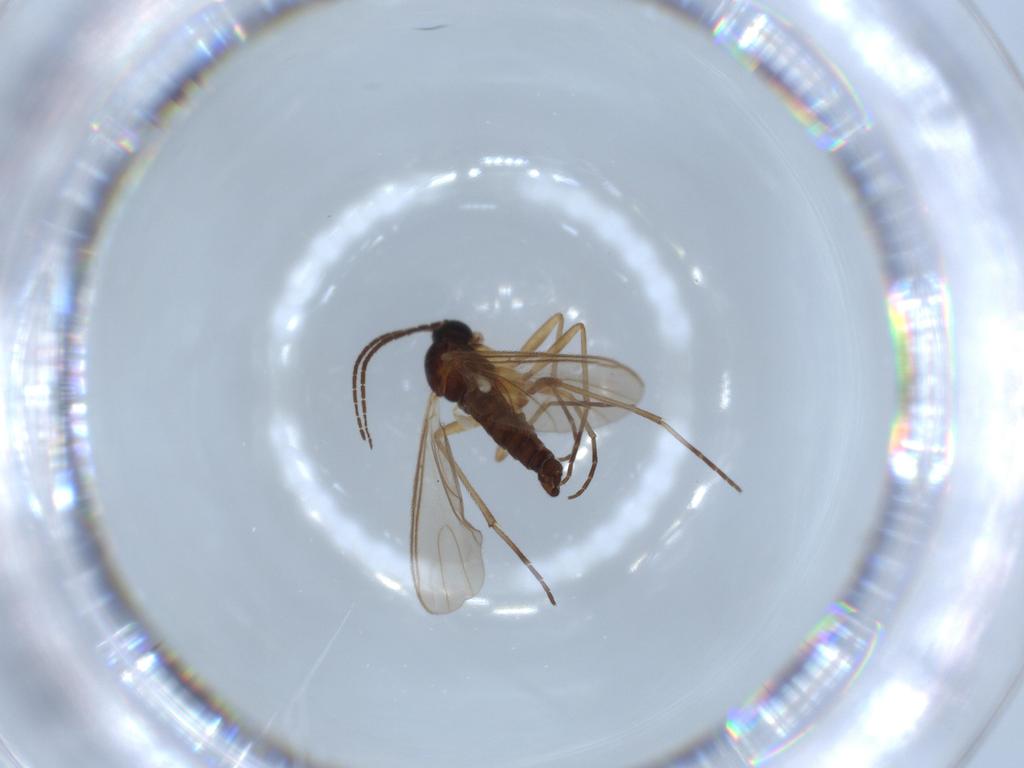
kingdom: Animalia
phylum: Arthropoda
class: Insecta
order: Diptera
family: Sciaridae
